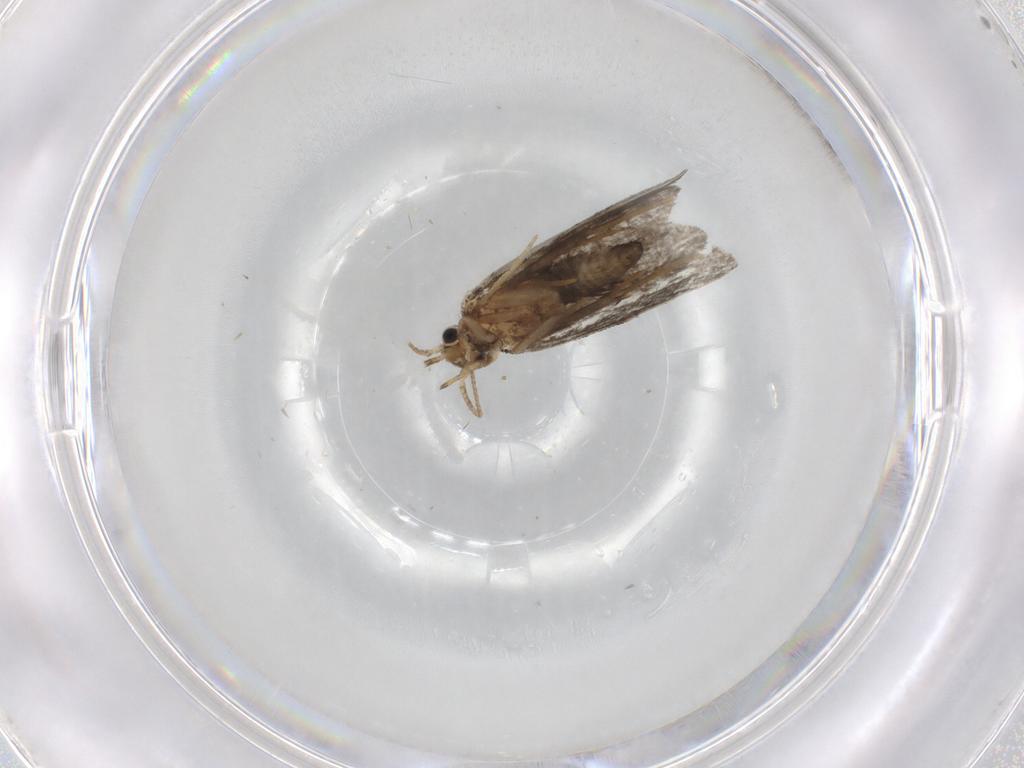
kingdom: Animalia
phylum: Arthropoda
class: Insecta
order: Lepidoptera
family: Psychidae
